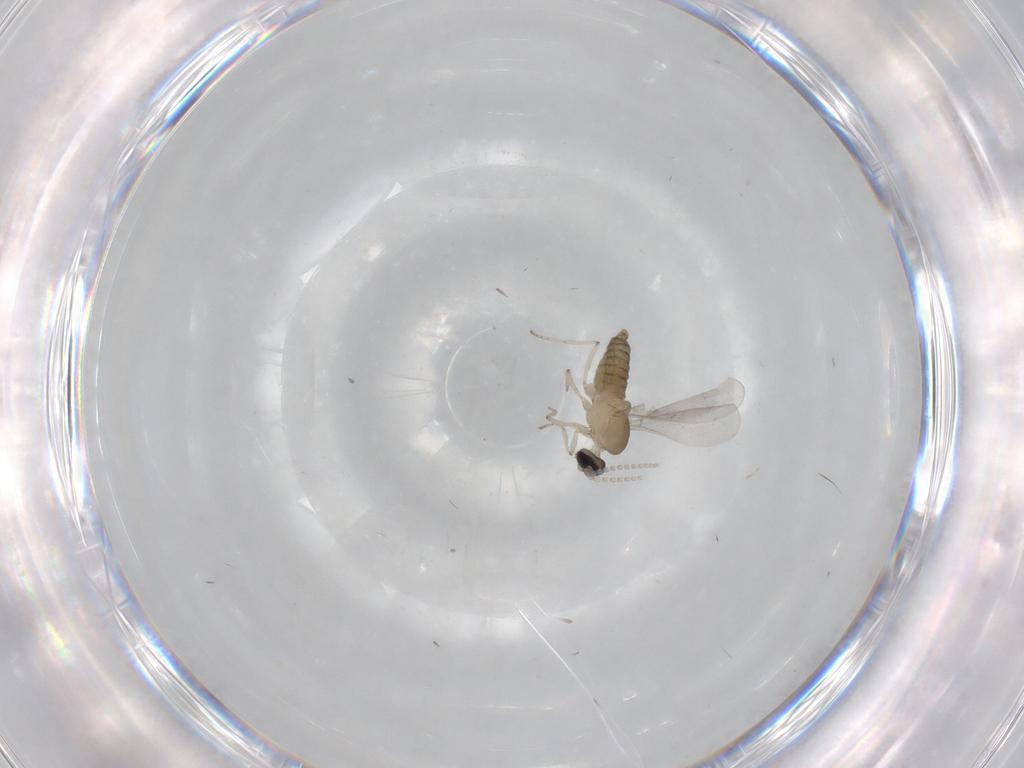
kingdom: Animalia
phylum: Arthropoda
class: Insecta
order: Diptera
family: Cecidomyiidae
